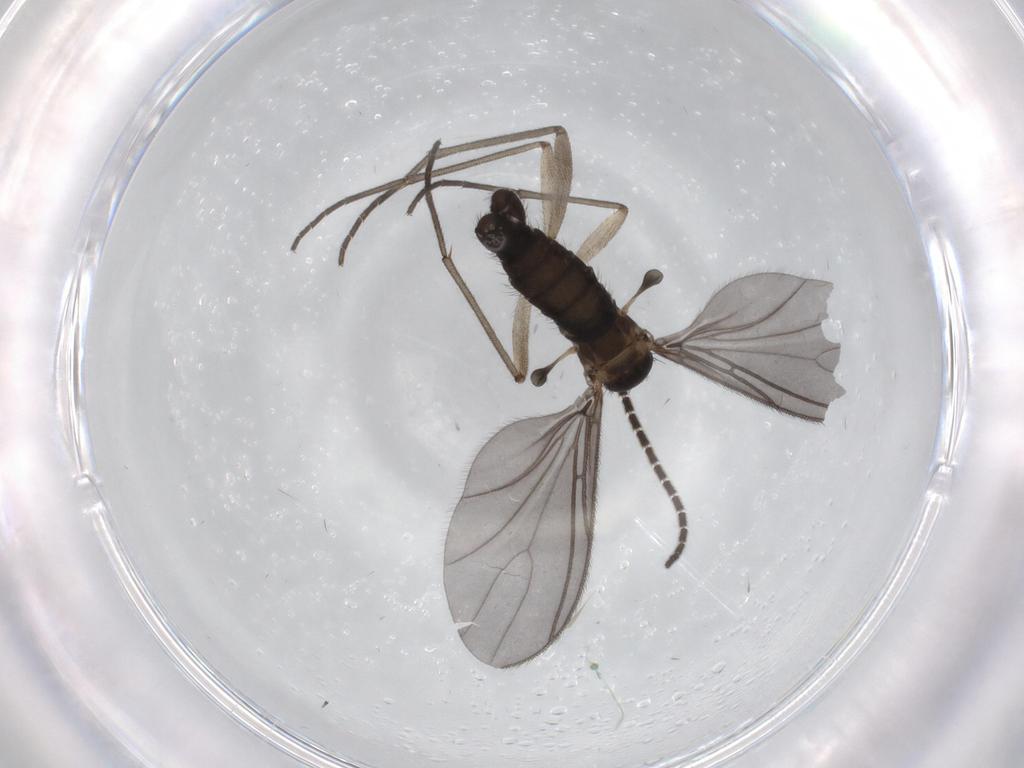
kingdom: Animalia
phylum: Arthropoda
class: Insecta
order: Diptera
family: Sciaridae
